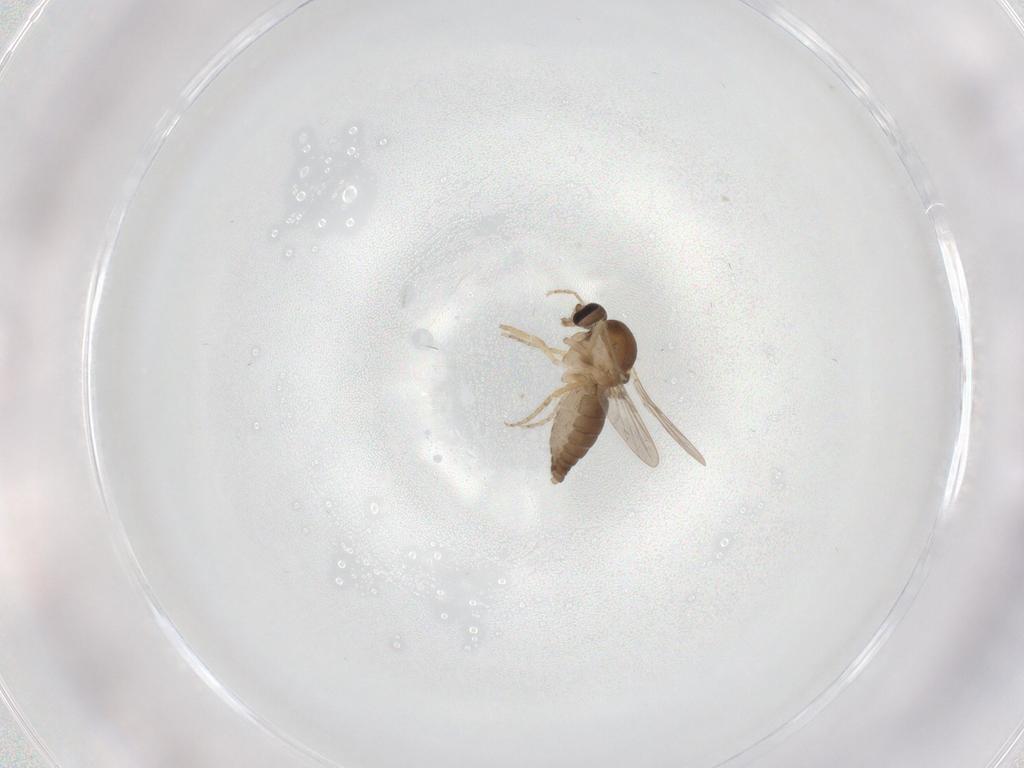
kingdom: Animalia
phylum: Arthropoda
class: Insecta
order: Diptera
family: Ceratopogonidae
